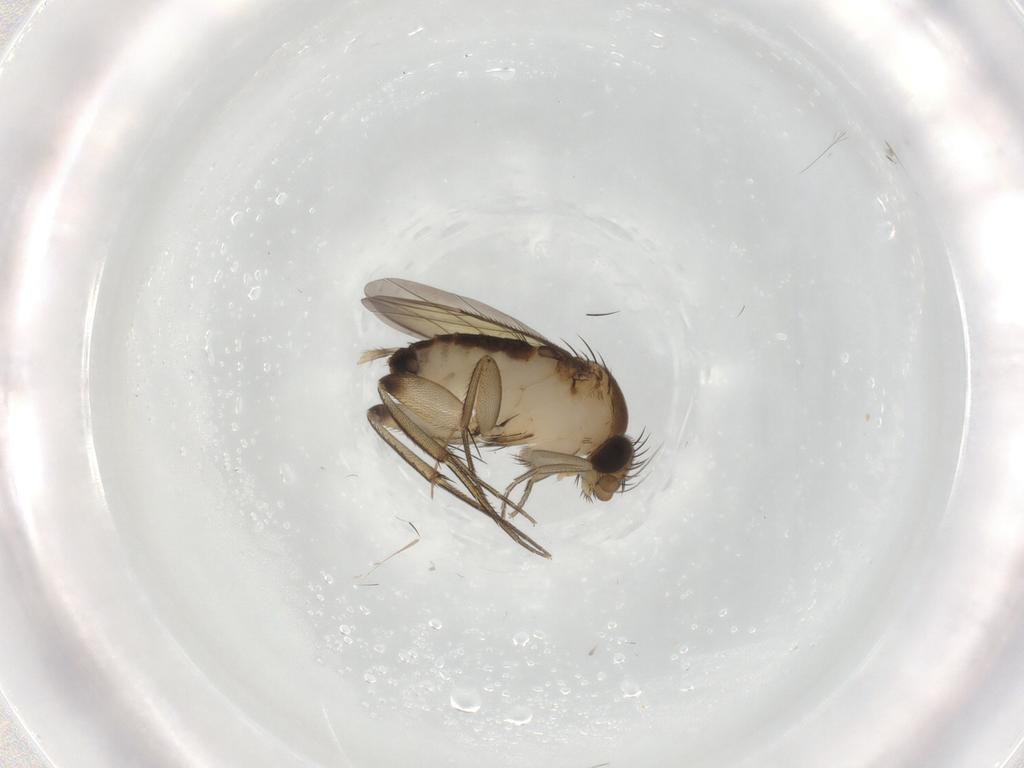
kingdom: Animalia
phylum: Arthropoda
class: Insecta
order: Diptera
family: Phoridae
